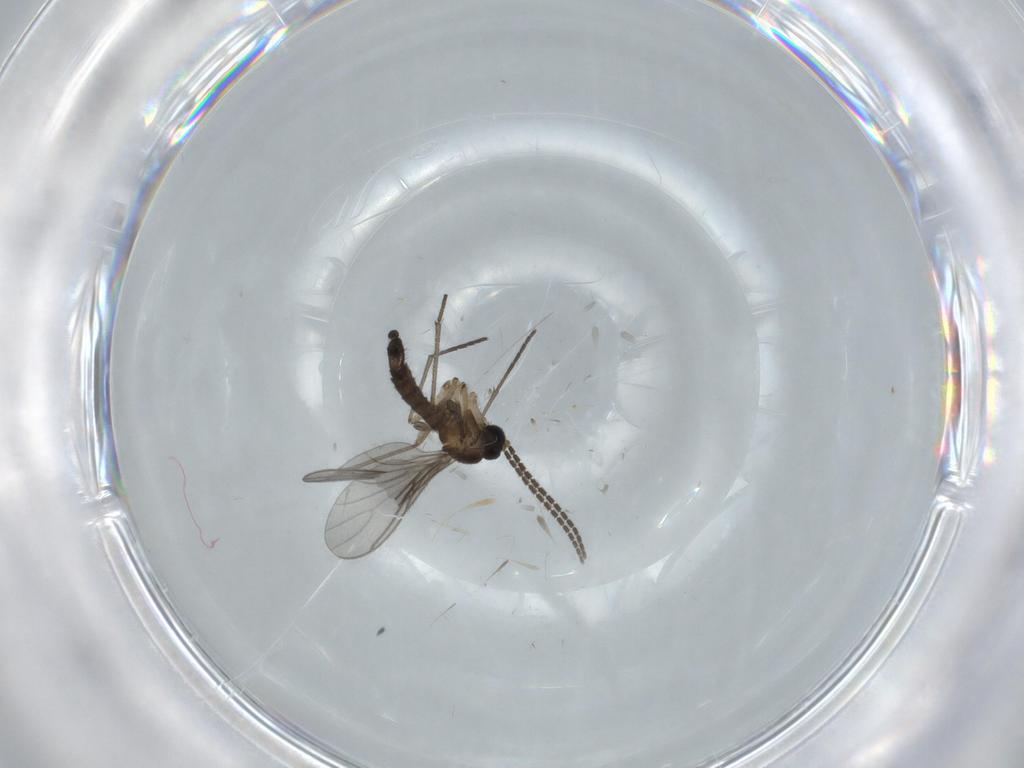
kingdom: Animalia
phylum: Arthropoda
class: Insecta
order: Diptera
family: Sciaridae
